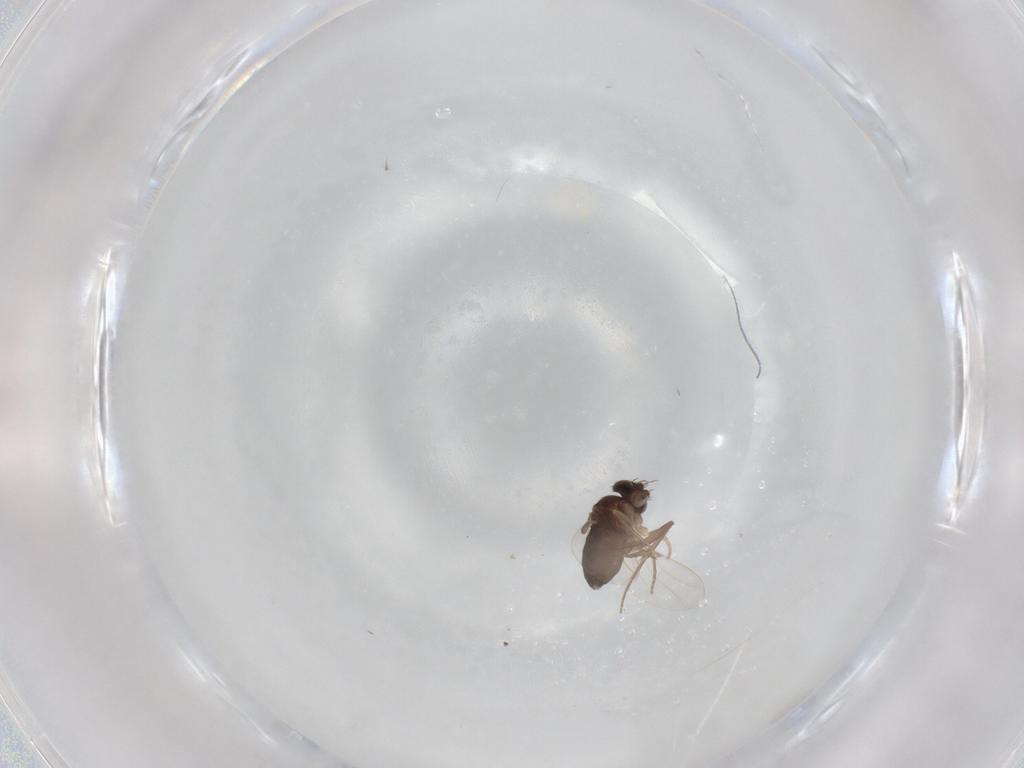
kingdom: Animalia
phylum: Arthropoda
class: Insecta
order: Diptera
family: Phoridae
